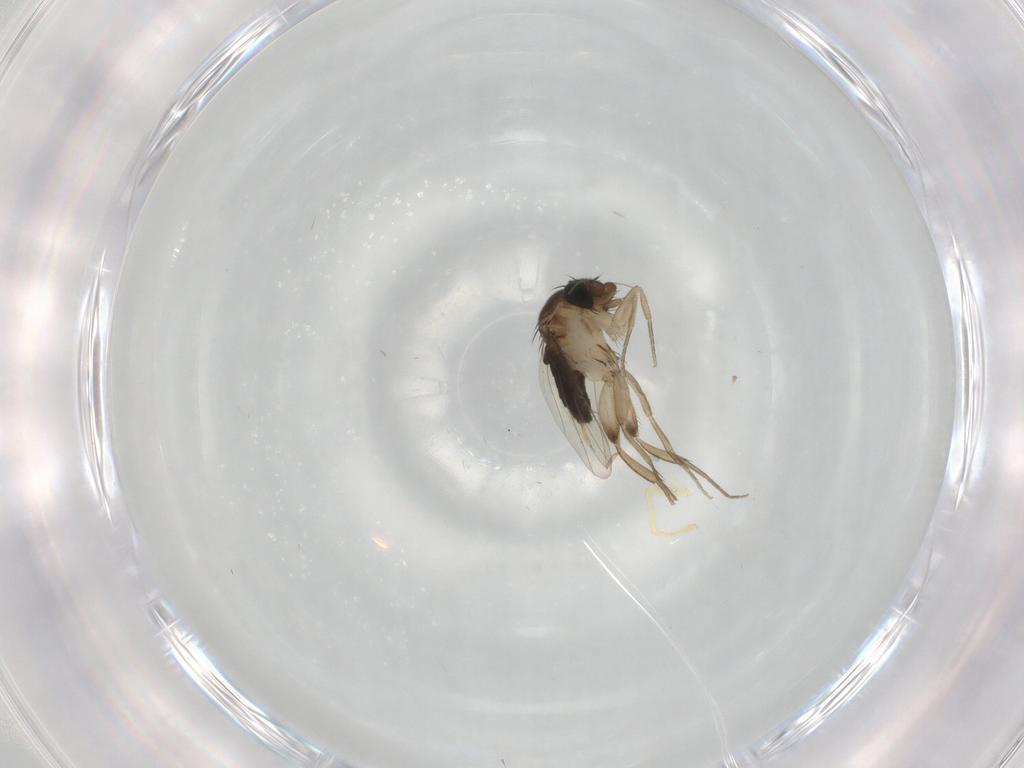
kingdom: Animalia
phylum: Arthropoda
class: Insecta
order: Diptera
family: Phoridae
